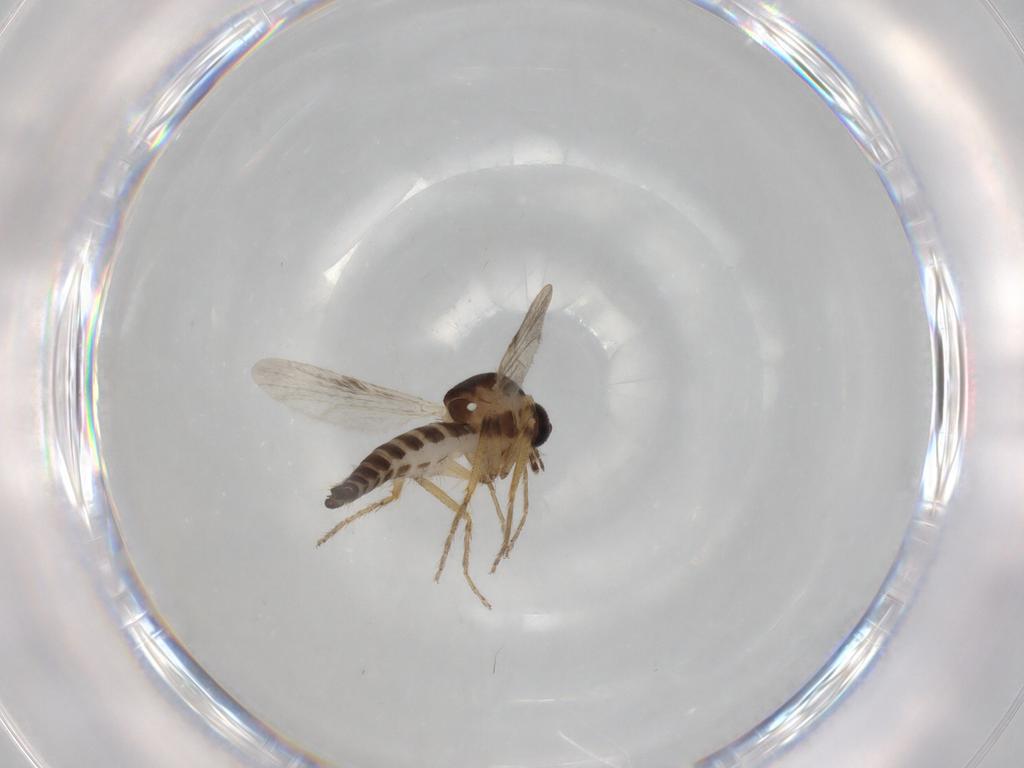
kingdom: Animalia
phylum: Arthropoda
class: Insecta
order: Diptera
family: Ceratopogonidae
